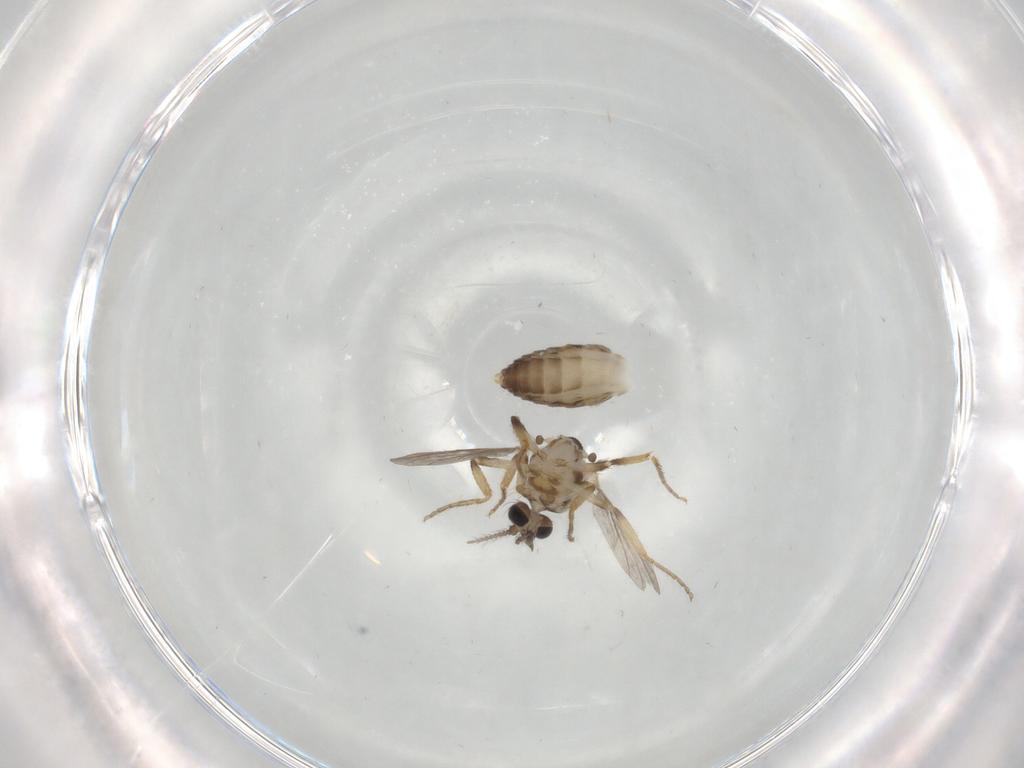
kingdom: Animalia
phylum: Arthropoda
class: Insecta
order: Diptera
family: Ceratopogonidae
